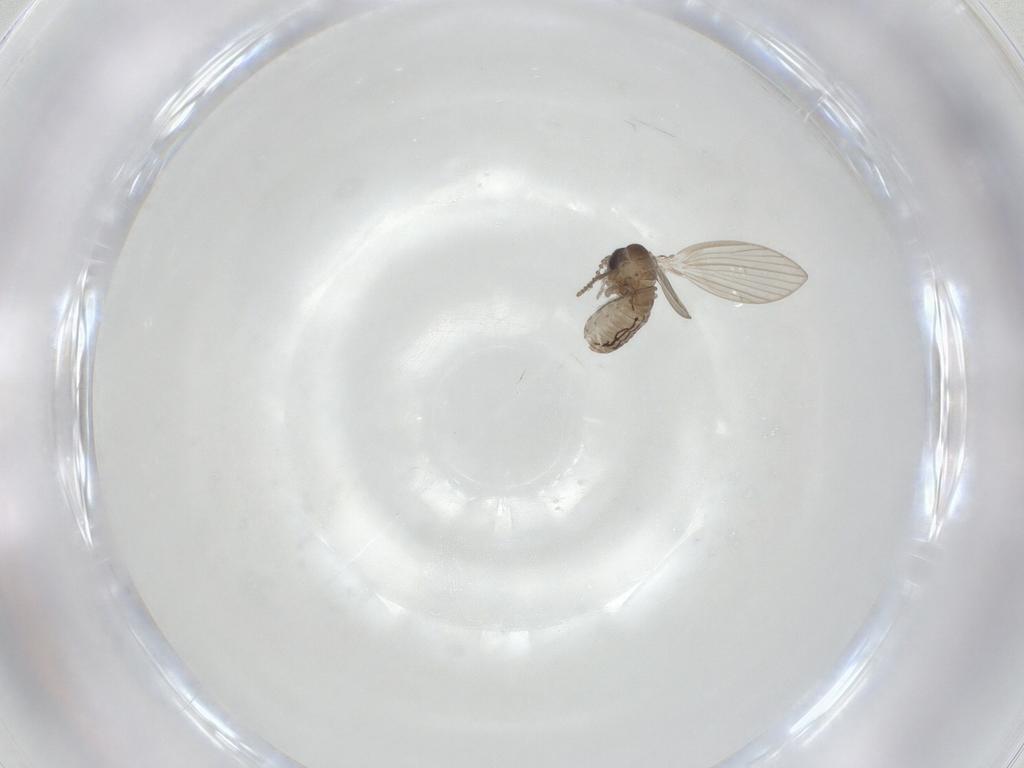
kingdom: Animalia
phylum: Arthropoda
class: Insecta
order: Diptera
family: Psychodidae
